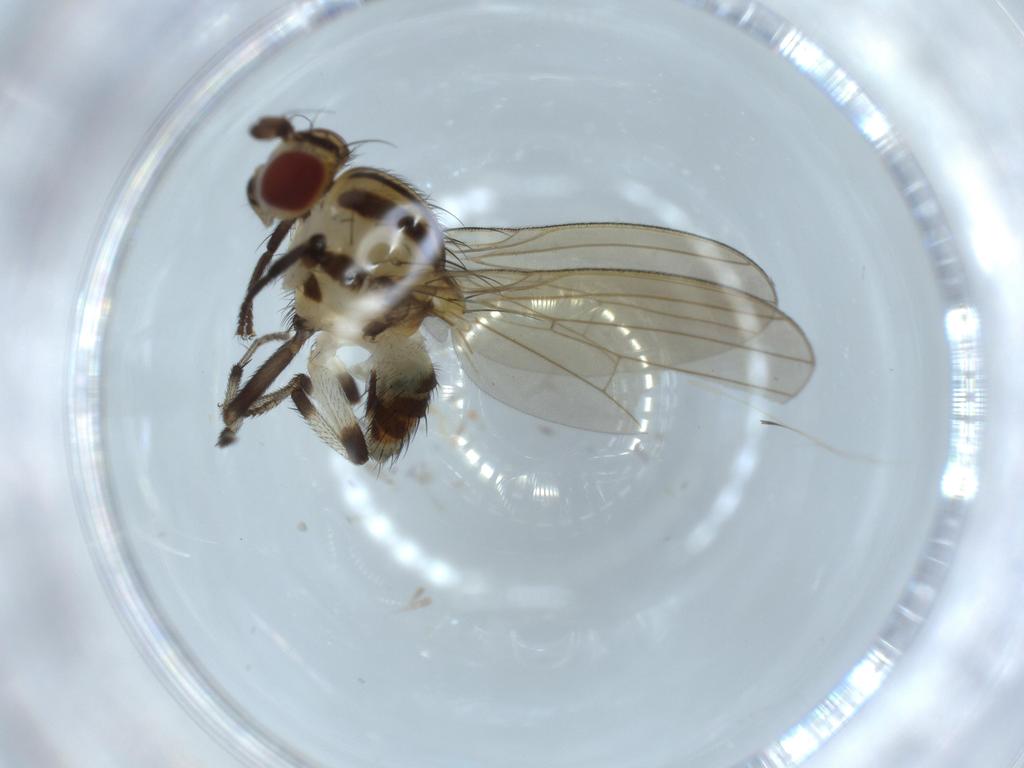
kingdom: Animalia
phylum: Arthropoda
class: Insecta
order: Diptera
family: Lauxaniidae
